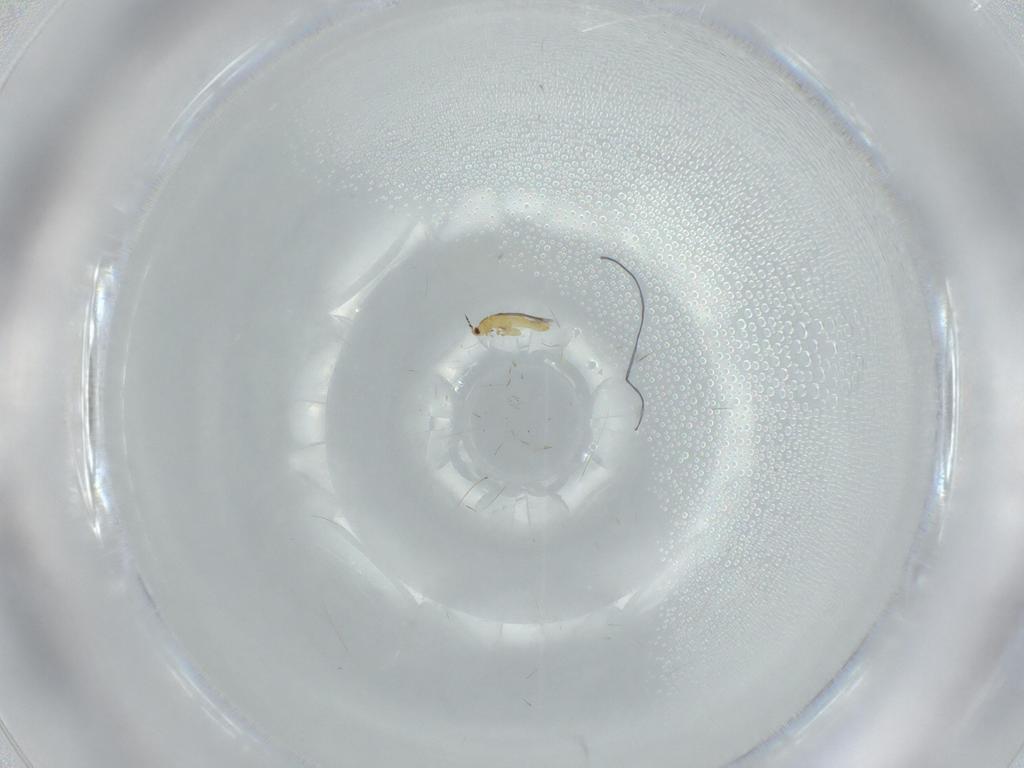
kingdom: Animalia
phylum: Arthropoda
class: Insecta
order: Thysanoptera
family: Thripidae
